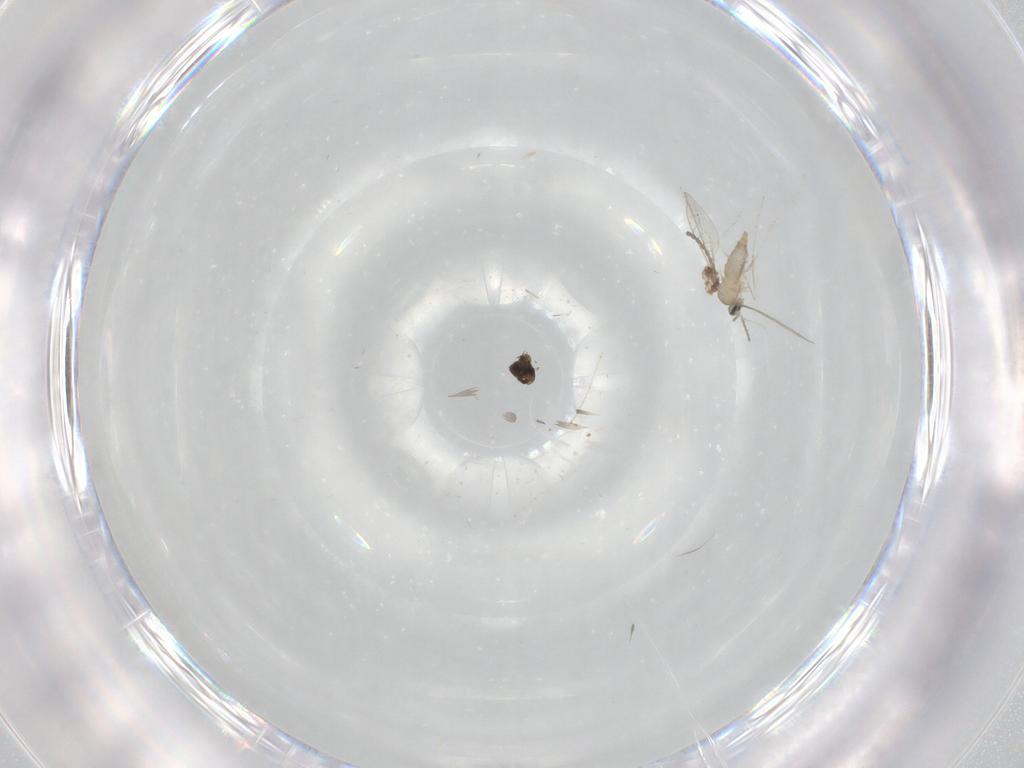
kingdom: Animalia
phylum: Arthropoda
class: Insecta
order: Diptera
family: Cecidomyiidae
